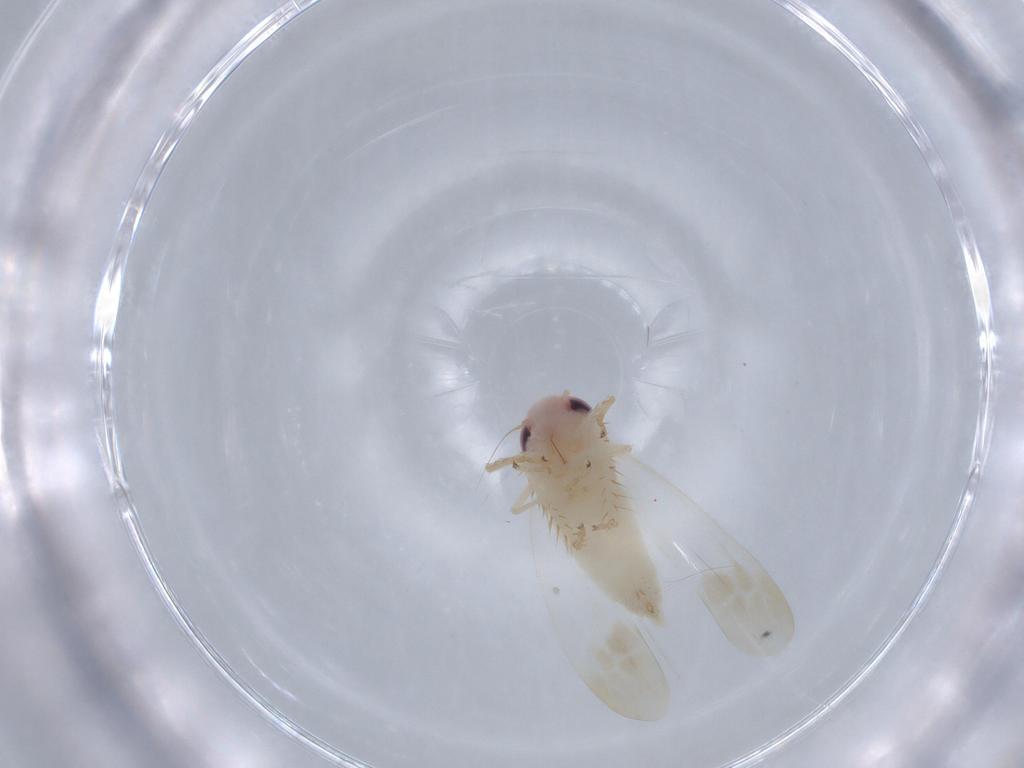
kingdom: Animalia
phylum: Arthropoda
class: Insecta
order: Hemiptera
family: Cicadellidae
